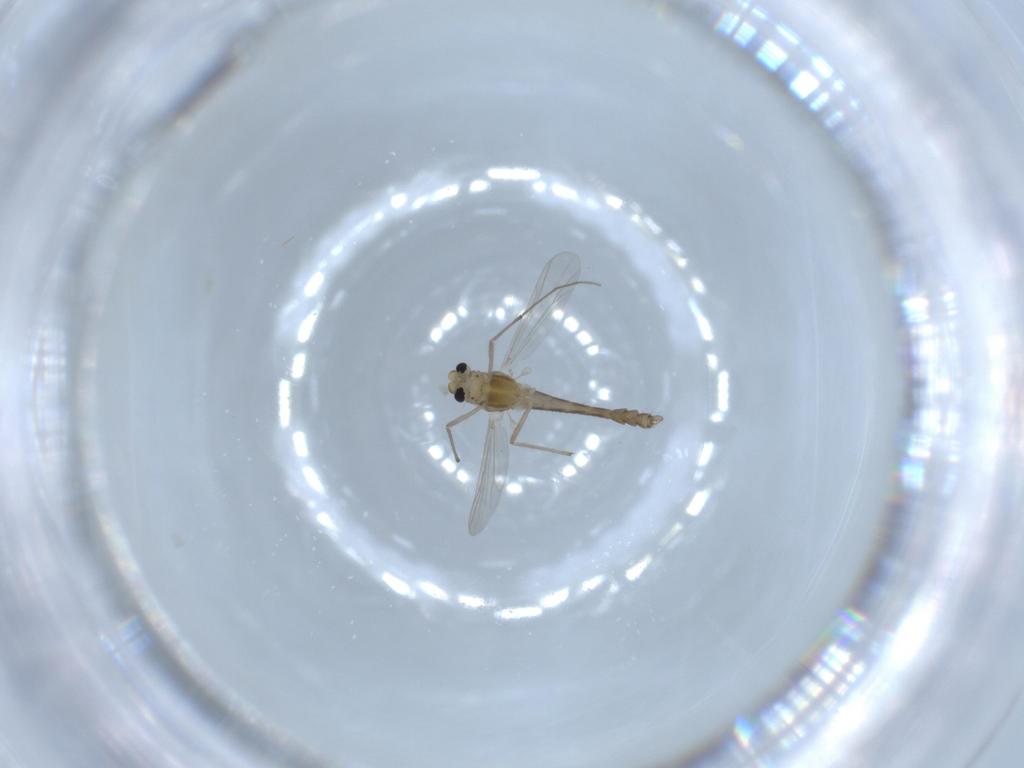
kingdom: Animalia
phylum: Arthropoda
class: Insecta
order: Diptera
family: Chironomidae
